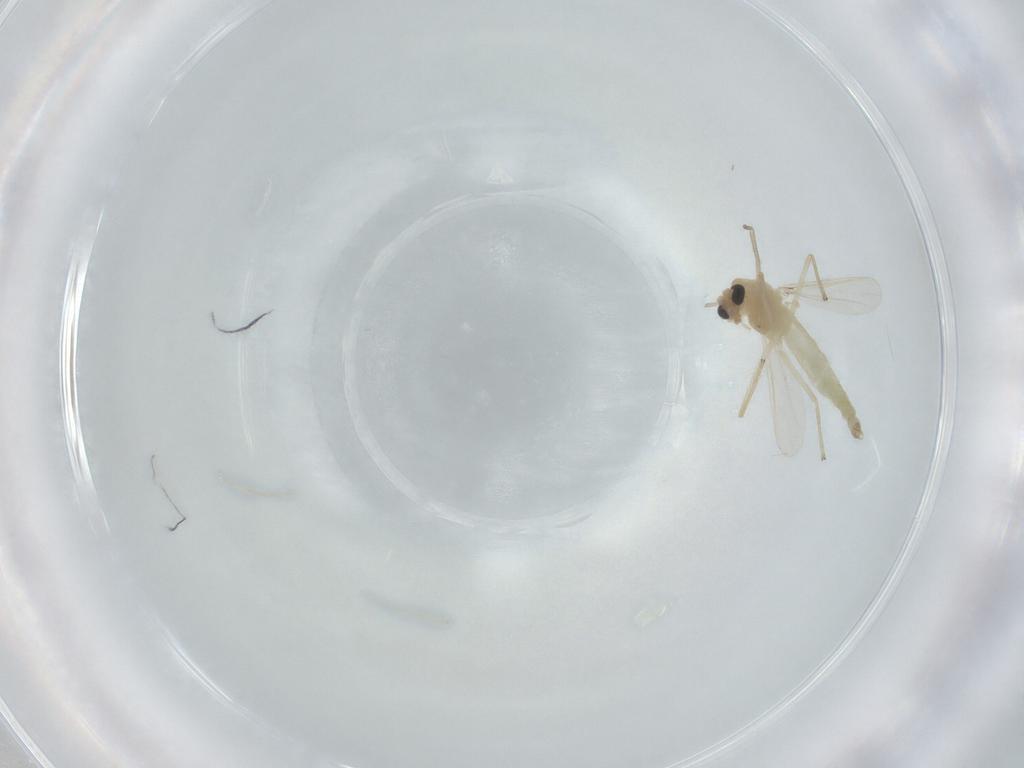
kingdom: Animalia
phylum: Arthropoda
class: Insecta
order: Diptera
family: Chironomidae
